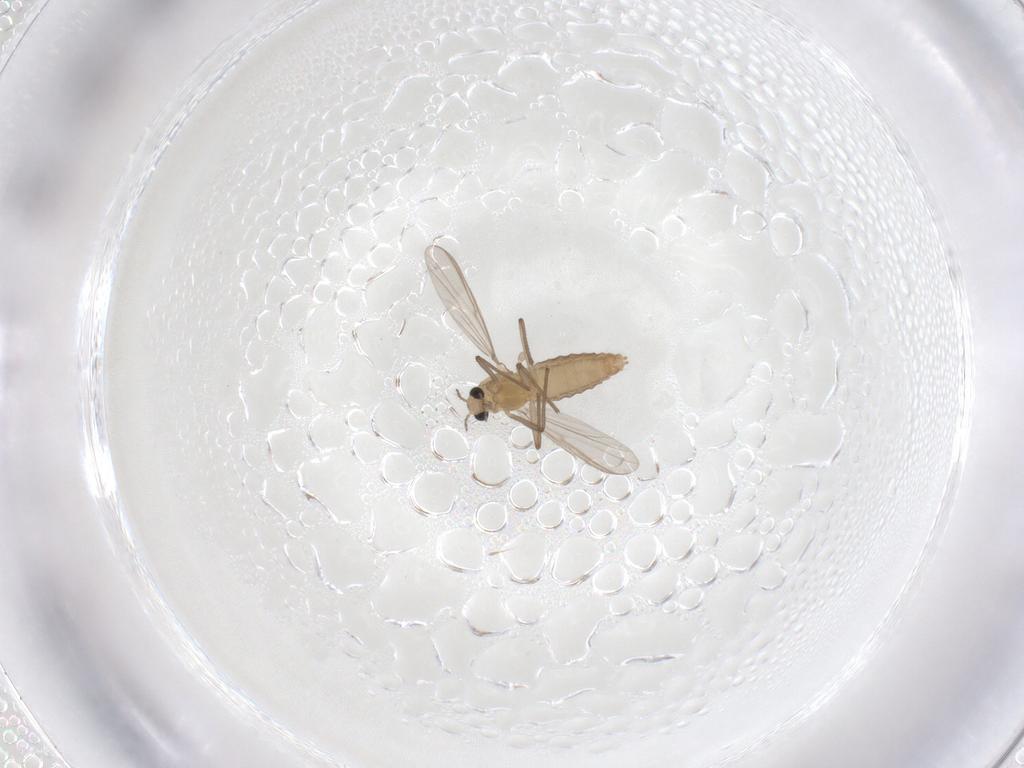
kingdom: Animalia
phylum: Arthropoda
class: Insecta
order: Diptera
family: Chironomidae
